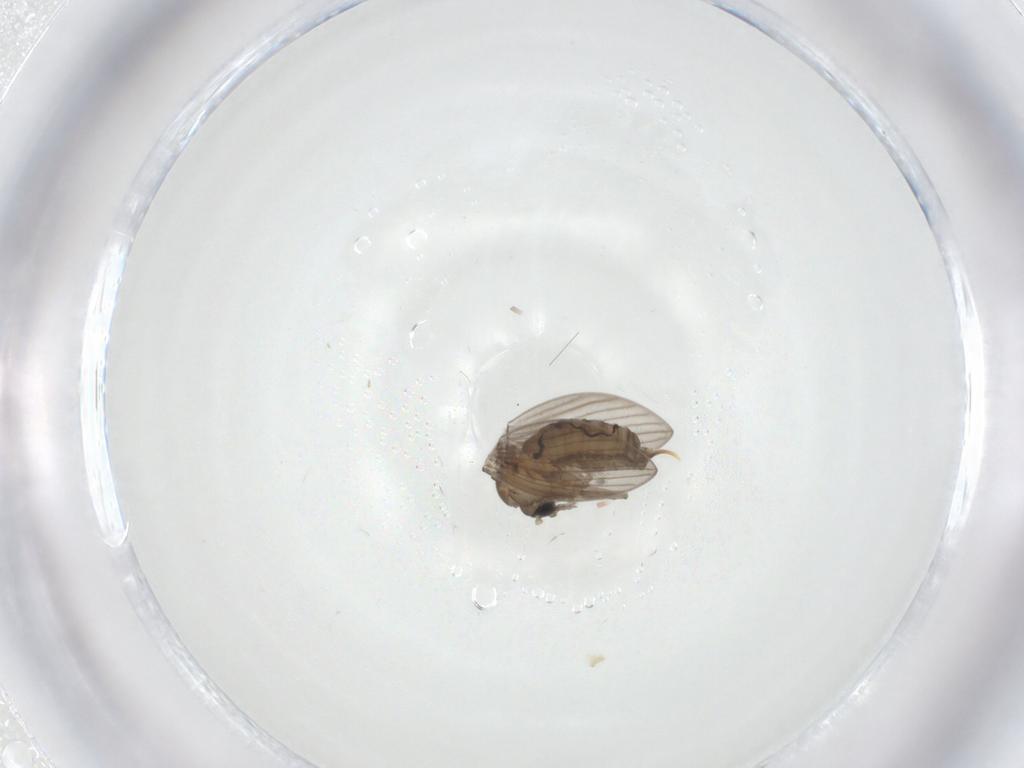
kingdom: Animalia
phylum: Arthropoda
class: Insecta
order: Diptera
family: Psychodidae
